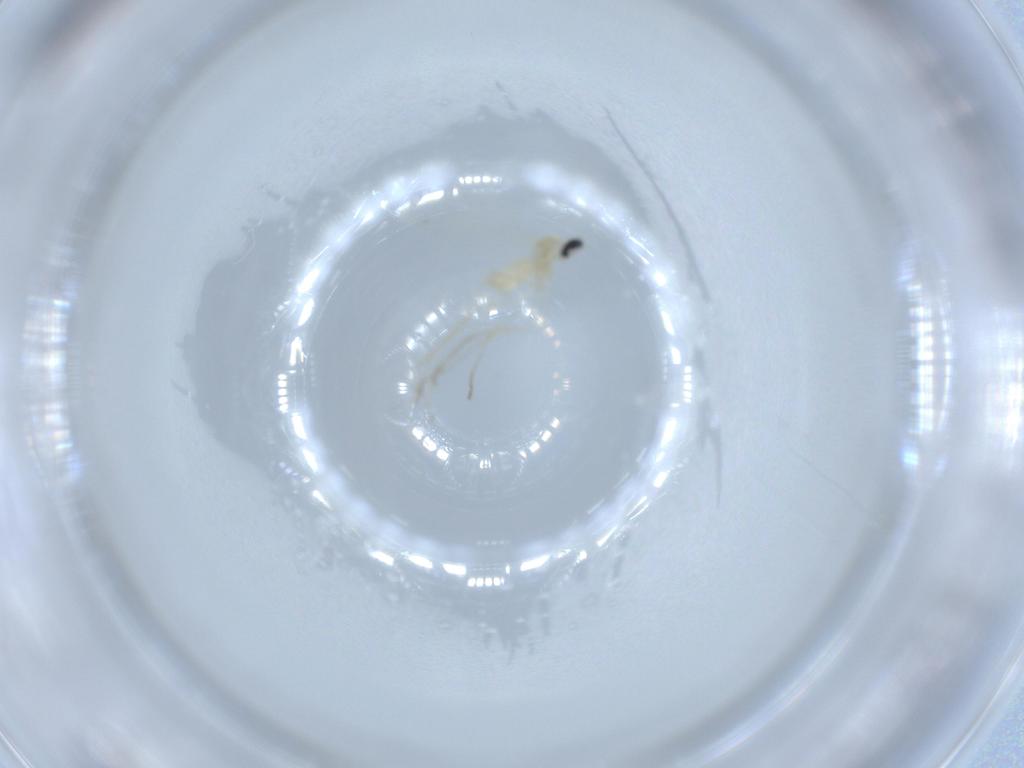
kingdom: Animalia
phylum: Arthropoda
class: Insecta
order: Diptera
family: Cecidomyiidae
